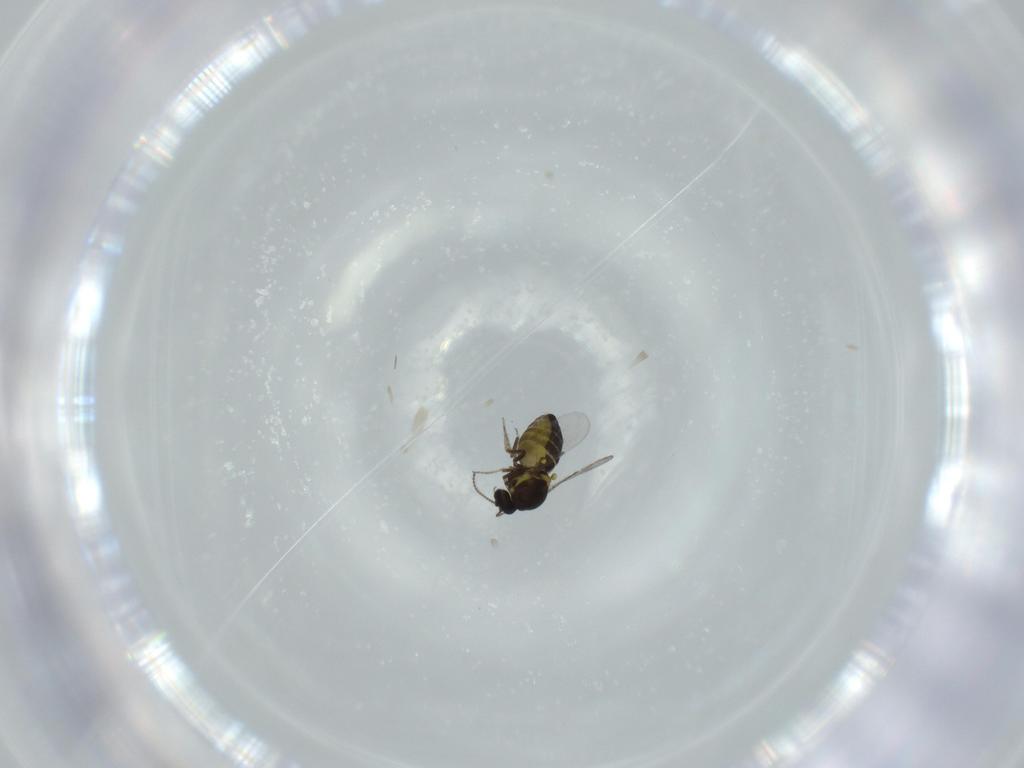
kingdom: Animalia
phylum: Arthropoda
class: Insecta
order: Diptera
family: Ceratopogonidae
